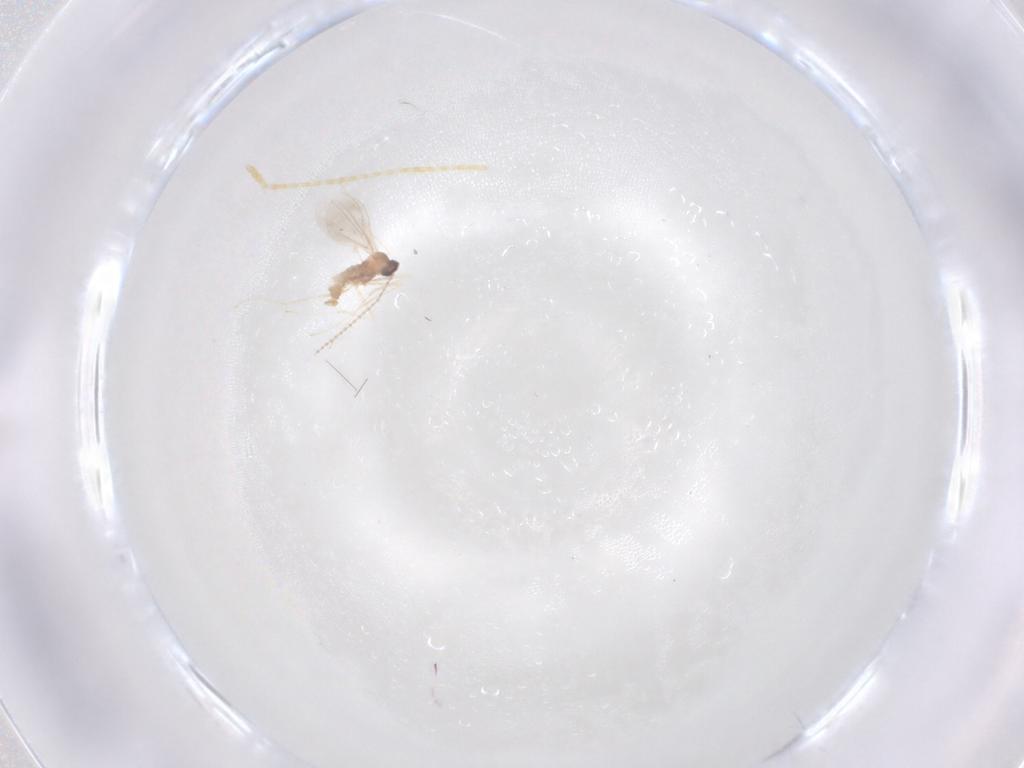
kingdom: Animalia
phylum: Arthropoda
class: Insecta
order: Diptera
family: Cecidomyiidae
